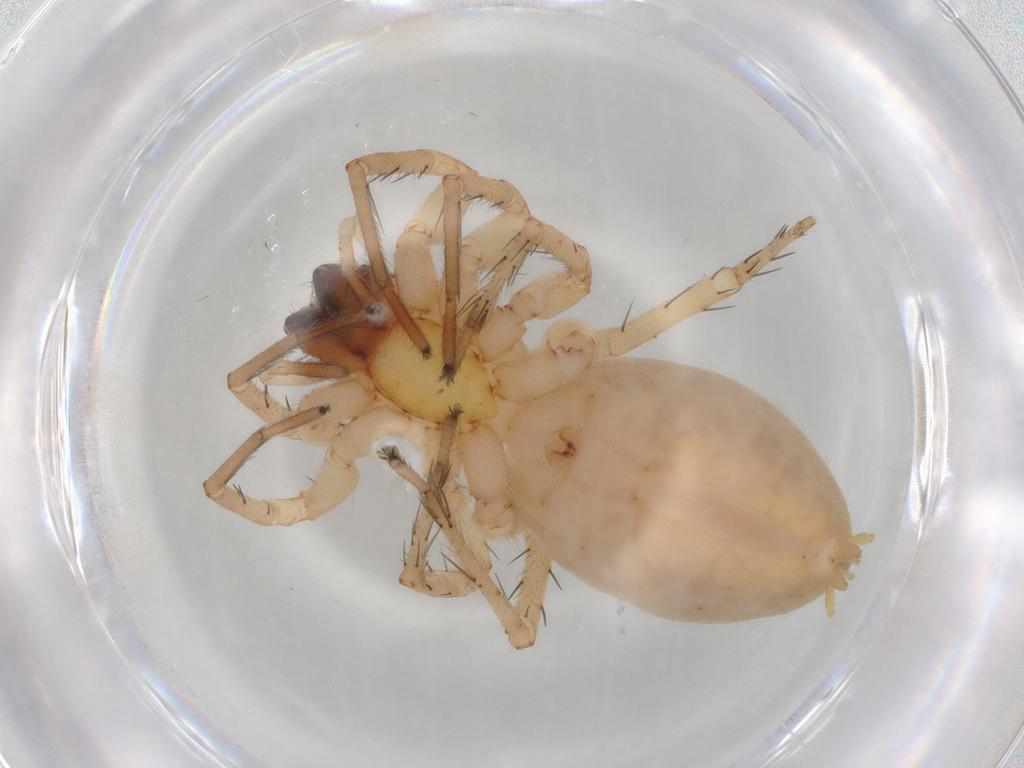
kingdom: Animalia
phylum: Arthropoda
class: Arachnida
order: Araneae
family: Anyphaenidae
